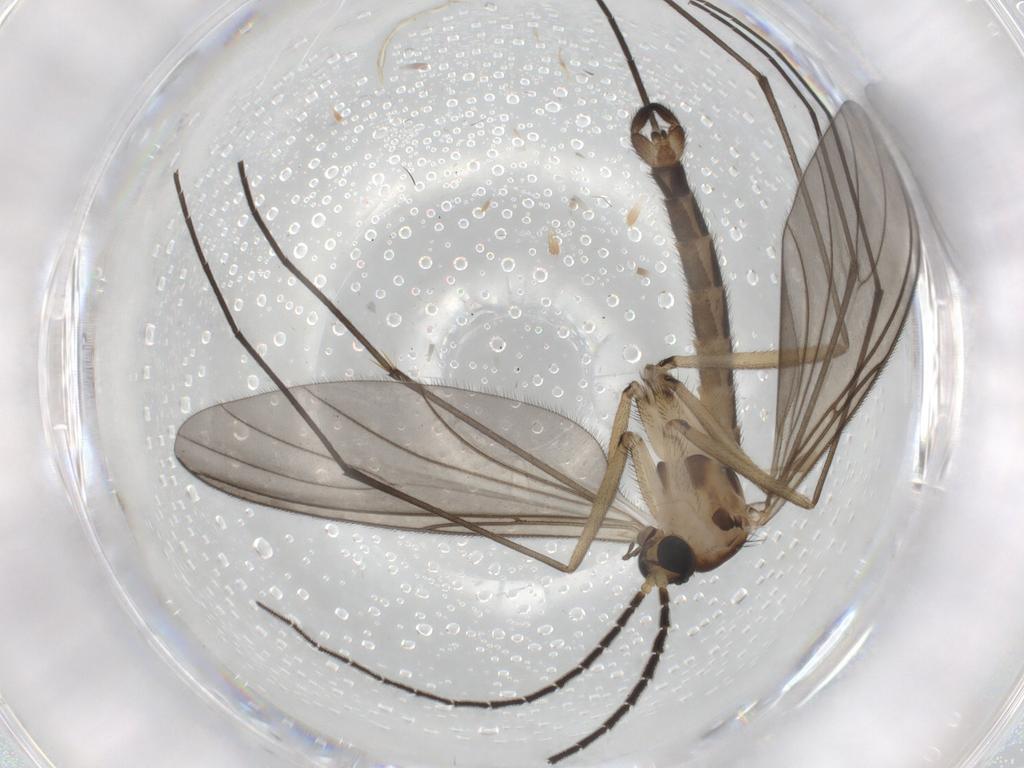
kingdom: Animalia
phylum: Arthropoda
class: Insecta
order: Diptera
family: Sciaridae
